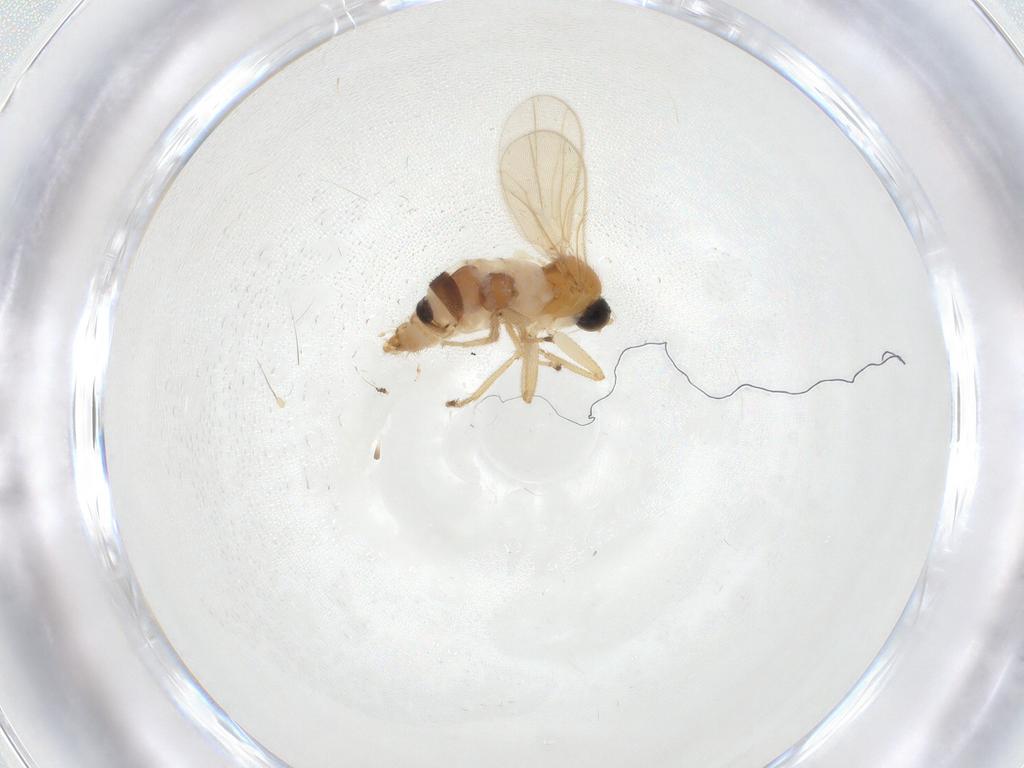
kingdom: Animalia
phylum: Arthropoda
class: Insecta
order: Diptera
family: Hybotidae
